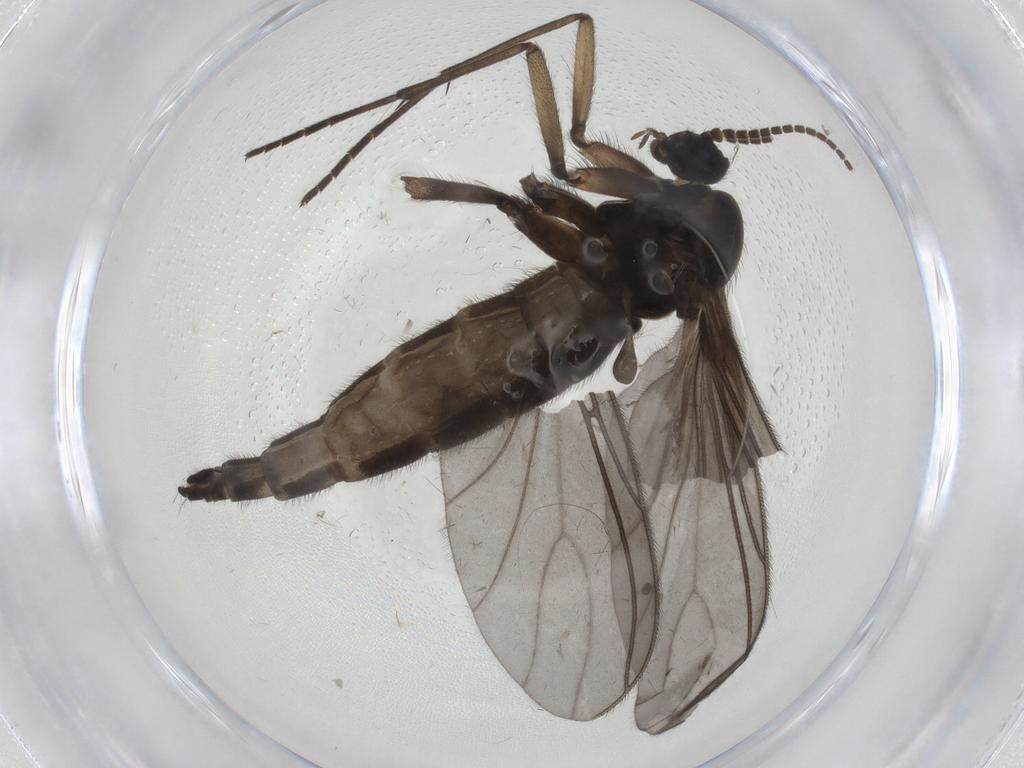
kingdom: Animalia
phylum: Arthropoda
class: Insecta
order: Diptera
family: Sciaridae
